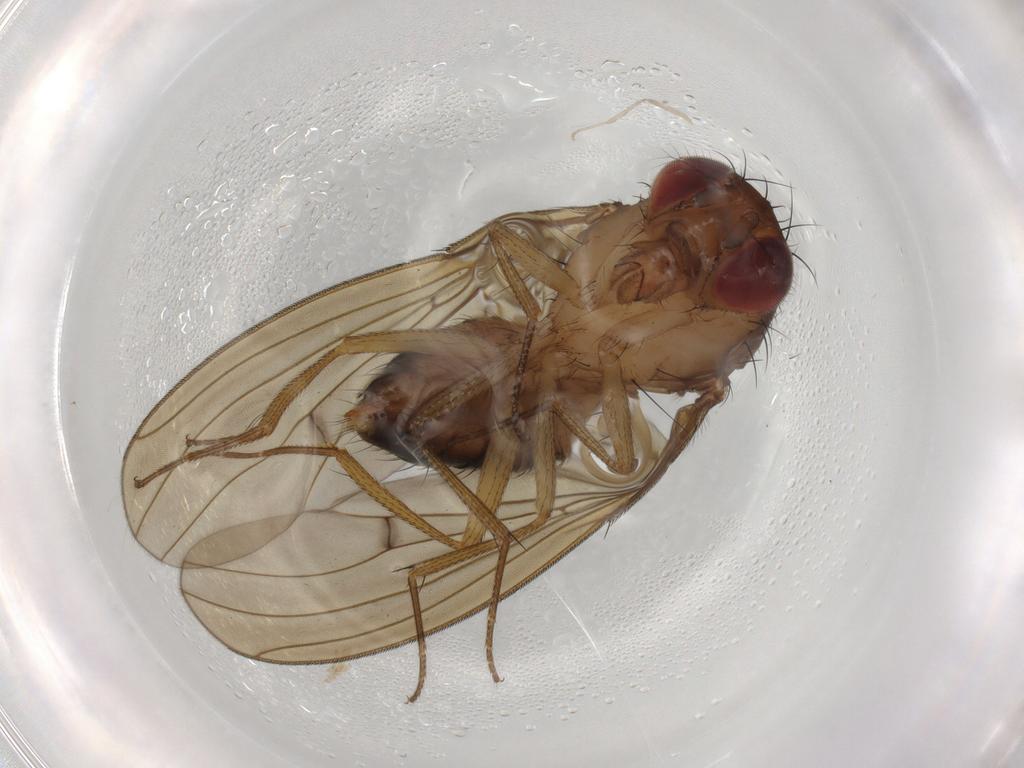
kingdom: Animalia
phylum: Arthropoda
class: Insecta
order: Diptera
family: Drosophilidae
